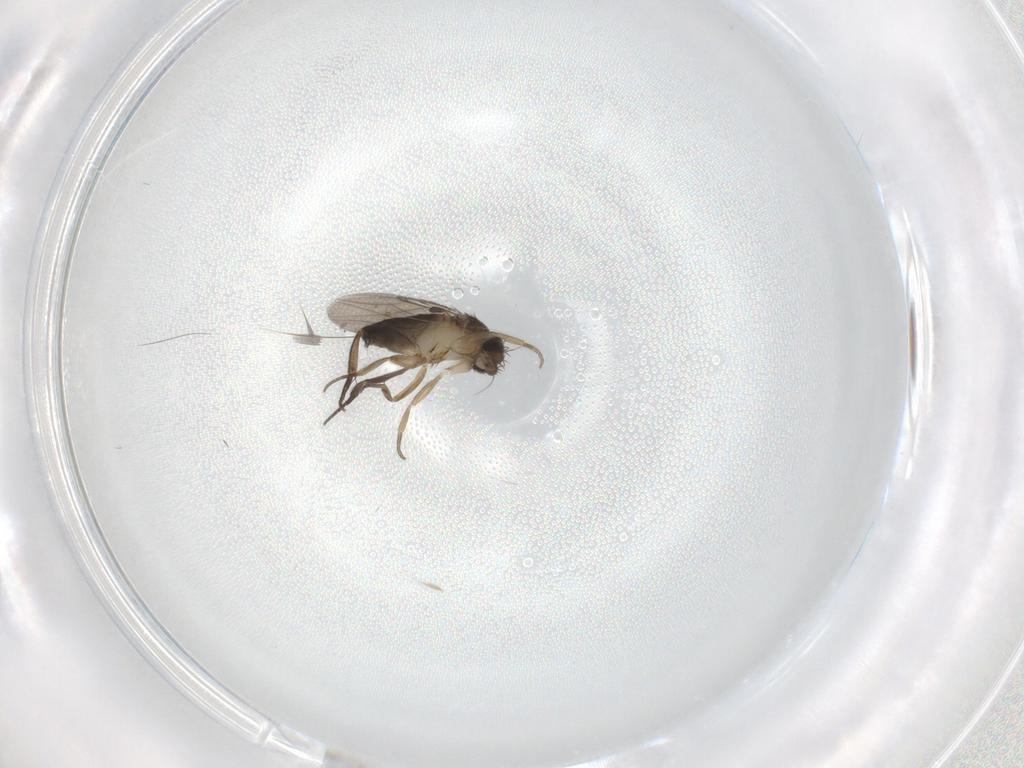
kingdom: Animalia
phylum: Arthropoda
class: Insecta
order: Diptera
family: Phoridae
